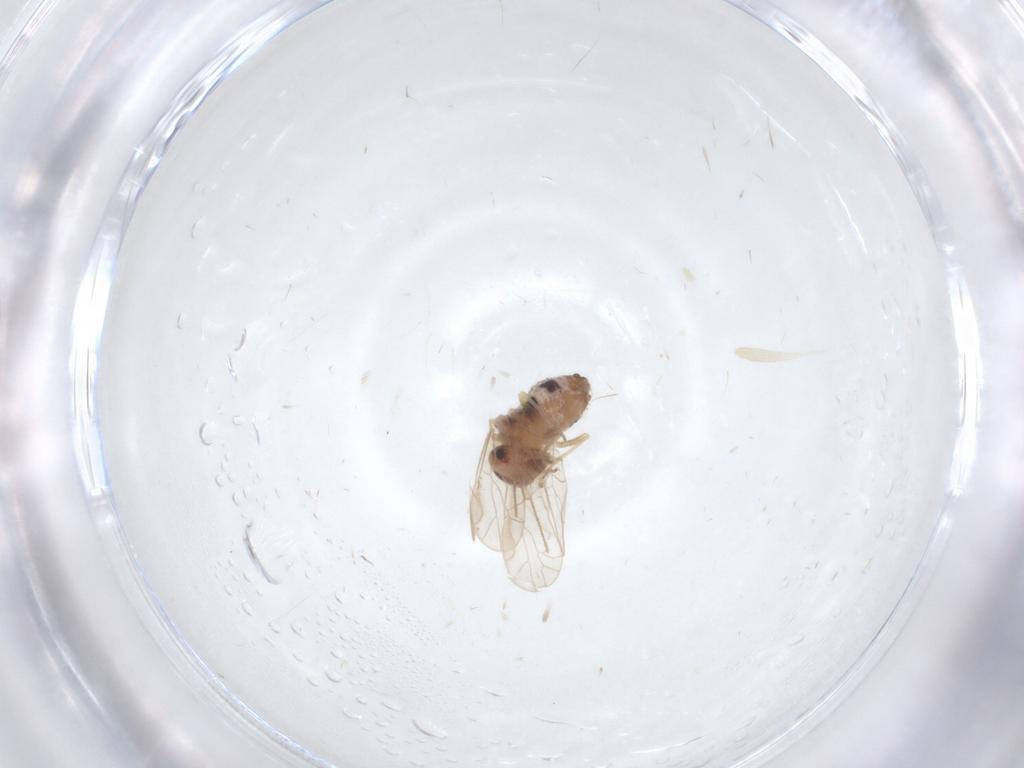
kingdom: Animalia
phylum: Arthropoda
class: Insecta
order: Psocodea
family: Ectopsocidae
